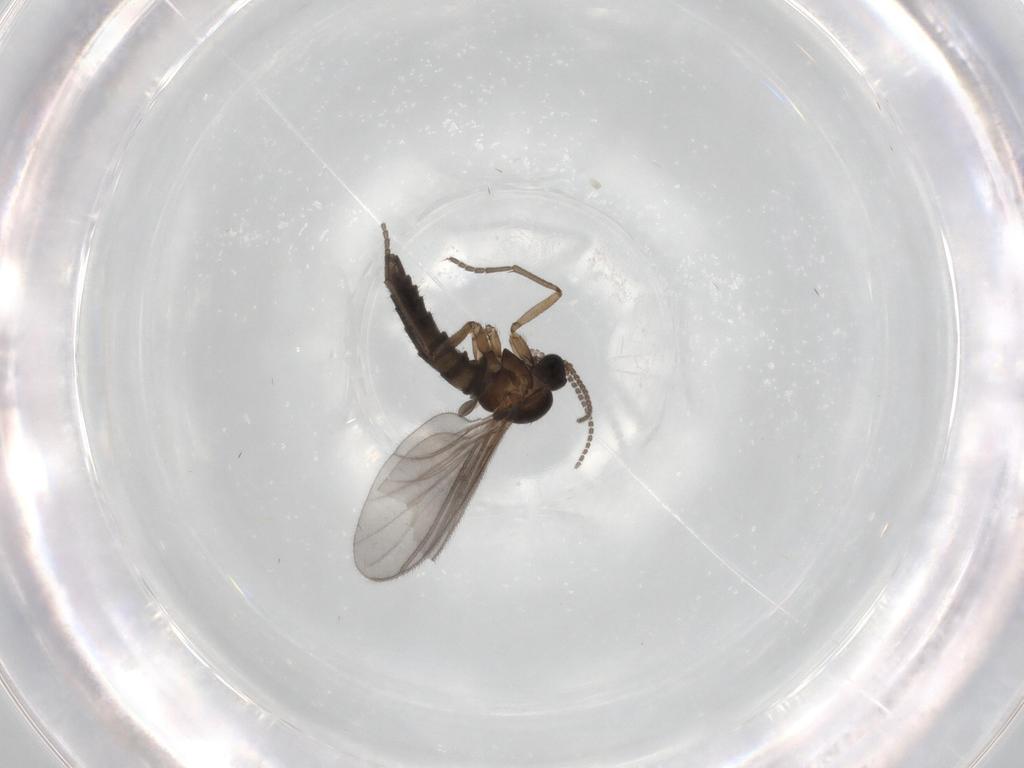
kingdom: Animalia
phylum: Arthropoda
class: Insecta
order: Diptera
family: Sciaridae
